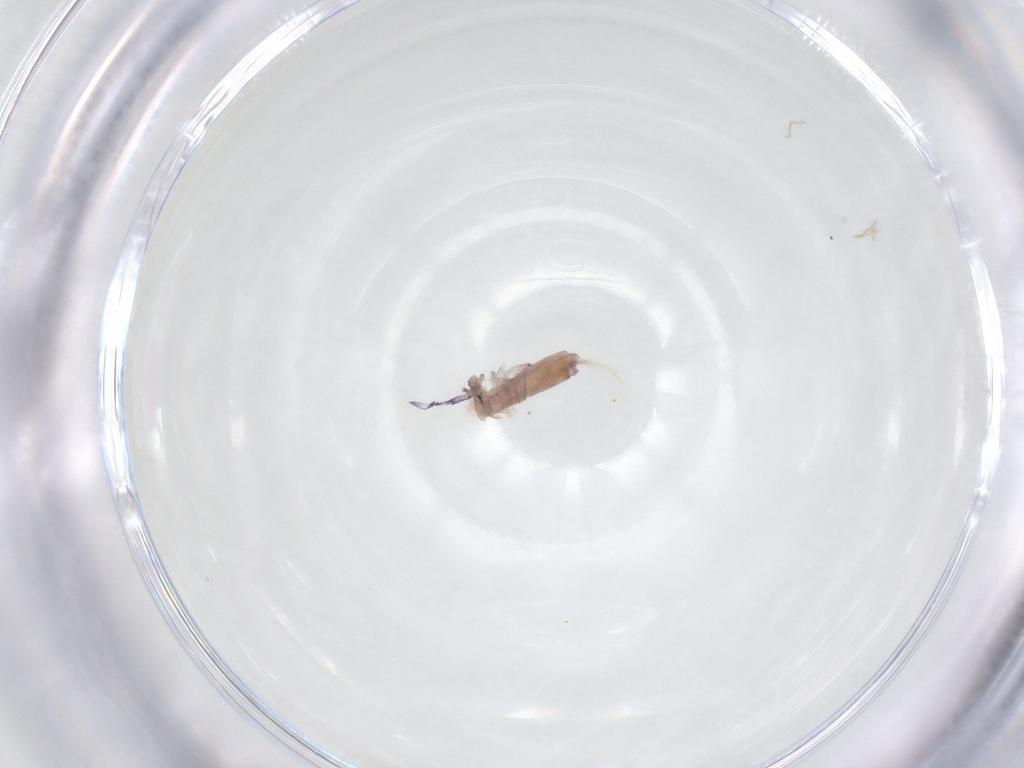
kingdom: Animalia
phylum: Arthropoda
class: Collembola
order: Entomobryomorpha
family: Entomobryidae
